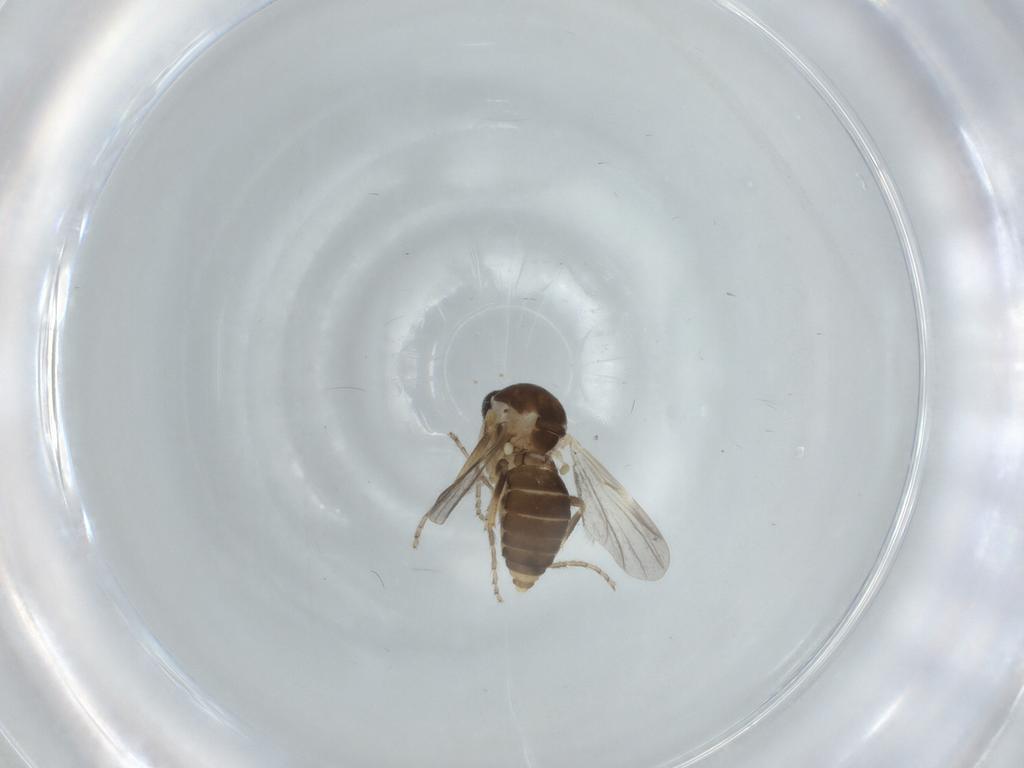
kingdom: Animalia
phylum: Arthropoda
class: Insecta
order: Diptera
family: Ceratopogonidae
